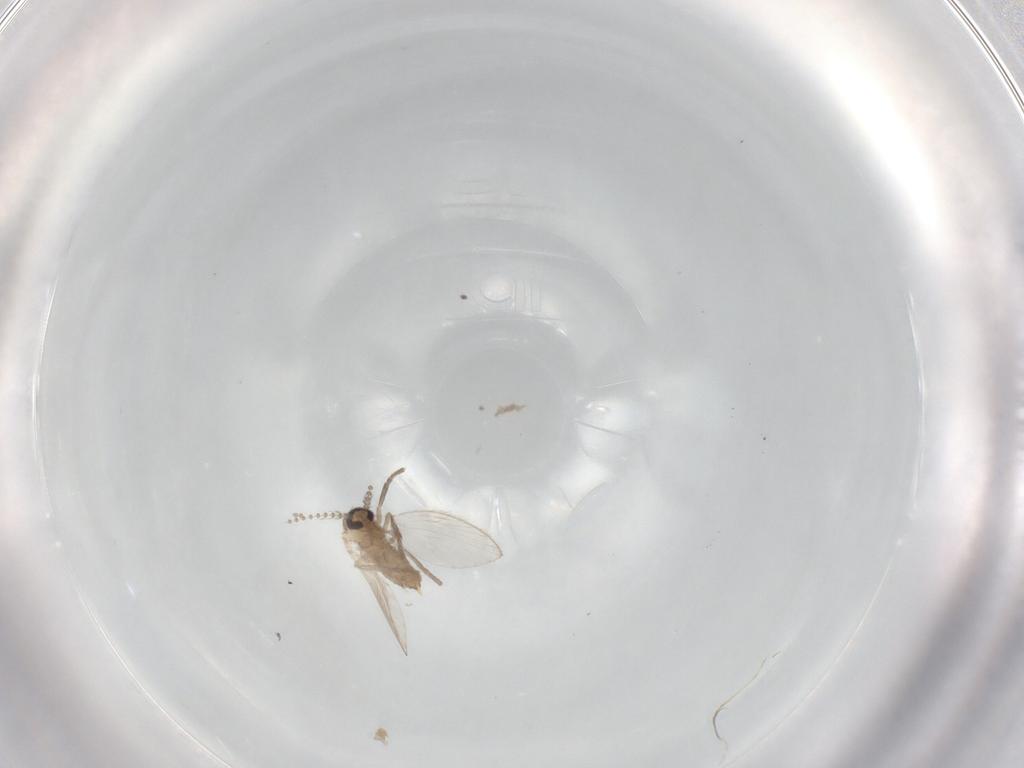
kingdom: Animalia
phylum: Arthropoda
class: Insecta
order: Diptera
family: Psychodidae
